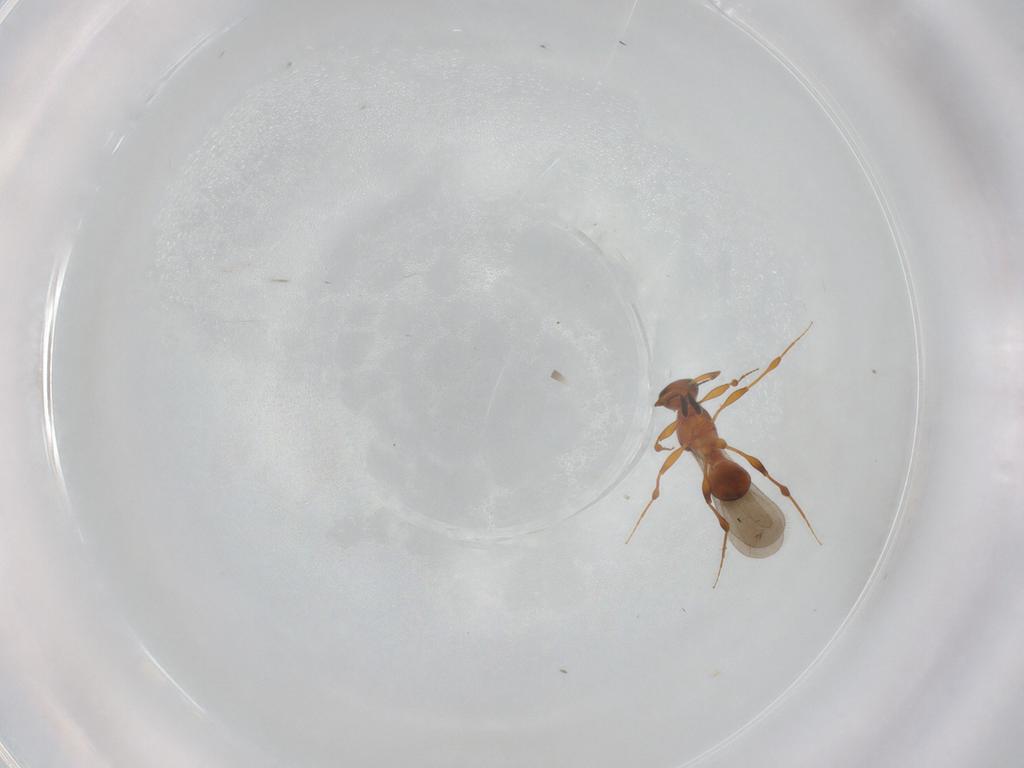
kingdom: Animalia
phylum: Arthropoda
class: Insecta
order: Hymenoptera
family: Platygastridae
